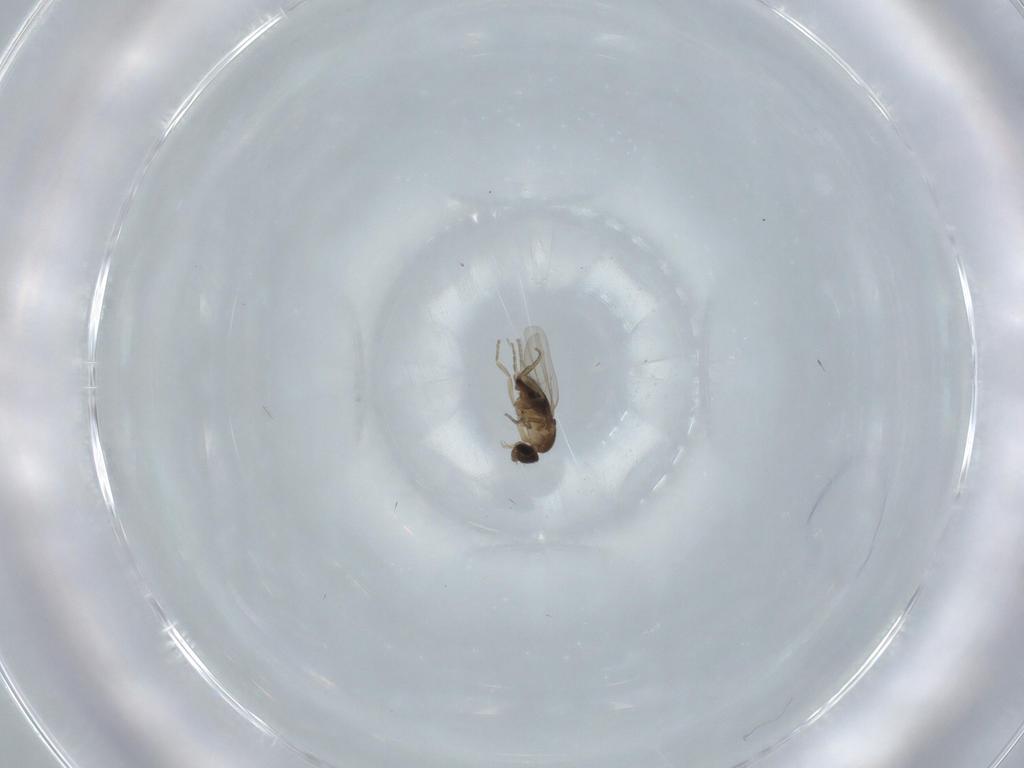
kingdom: Animalia
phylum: Arthropoda
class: Insecta
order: Diptera
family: Phoridae
